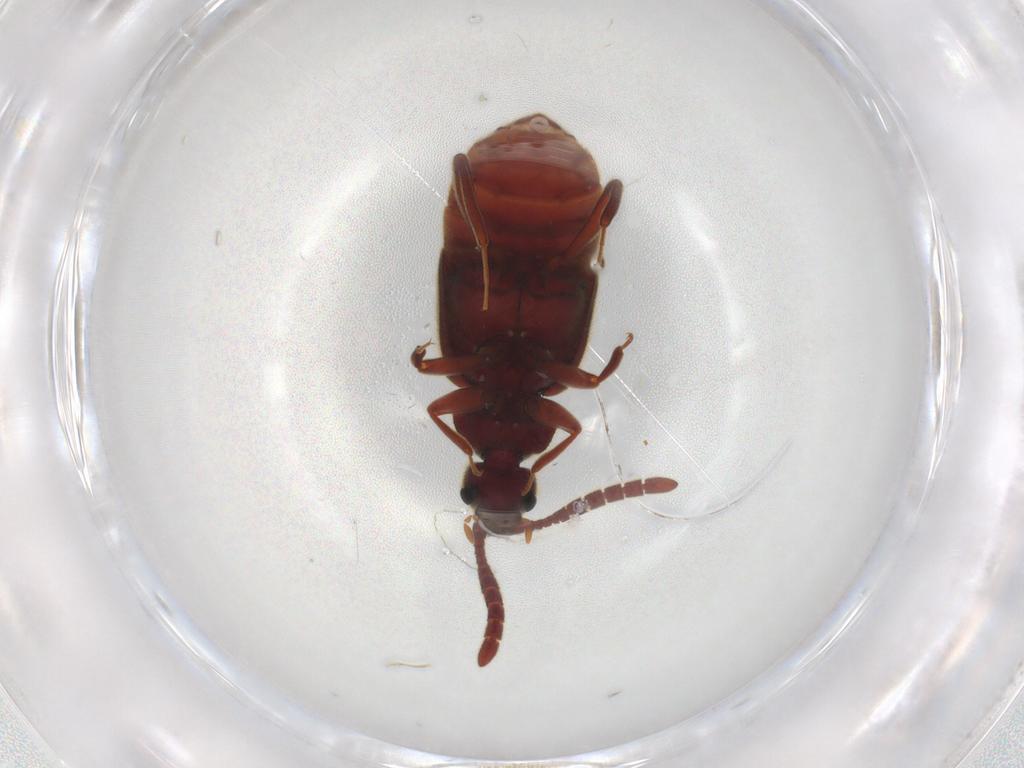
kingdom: Animalia
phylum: Arthropoda
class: Insecta
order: Coleoptera
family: Staphylinidae
